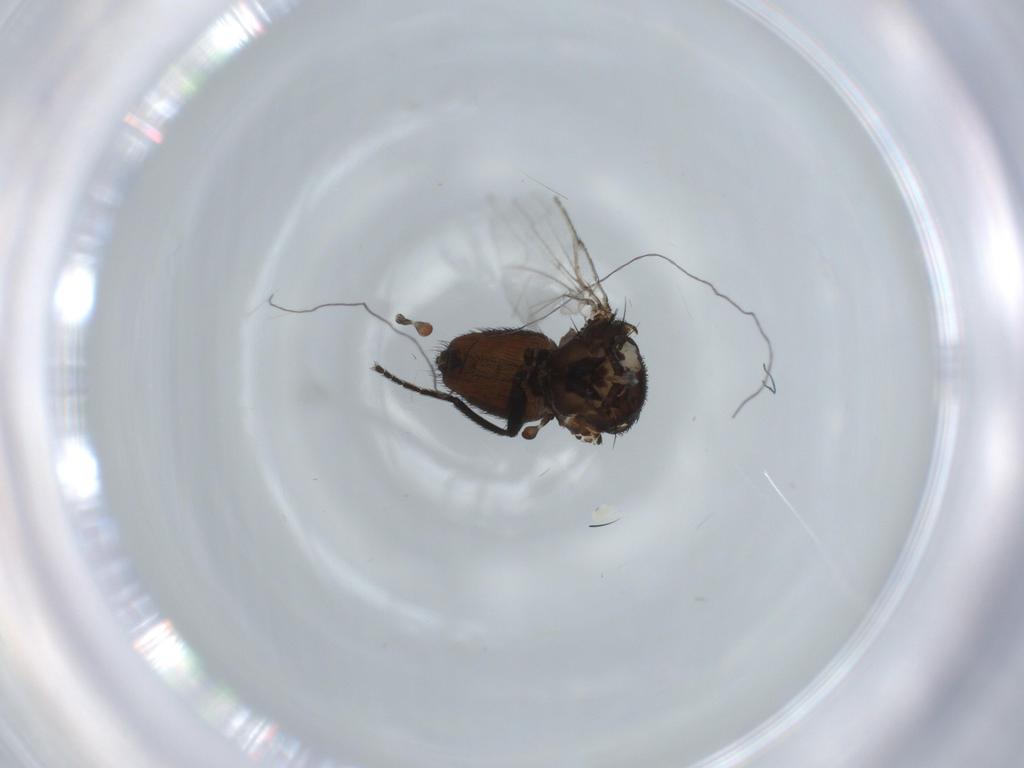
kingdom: Animalia
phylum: Arthropoda
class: Insecta
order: Diptera
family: Cecidomyiidae
